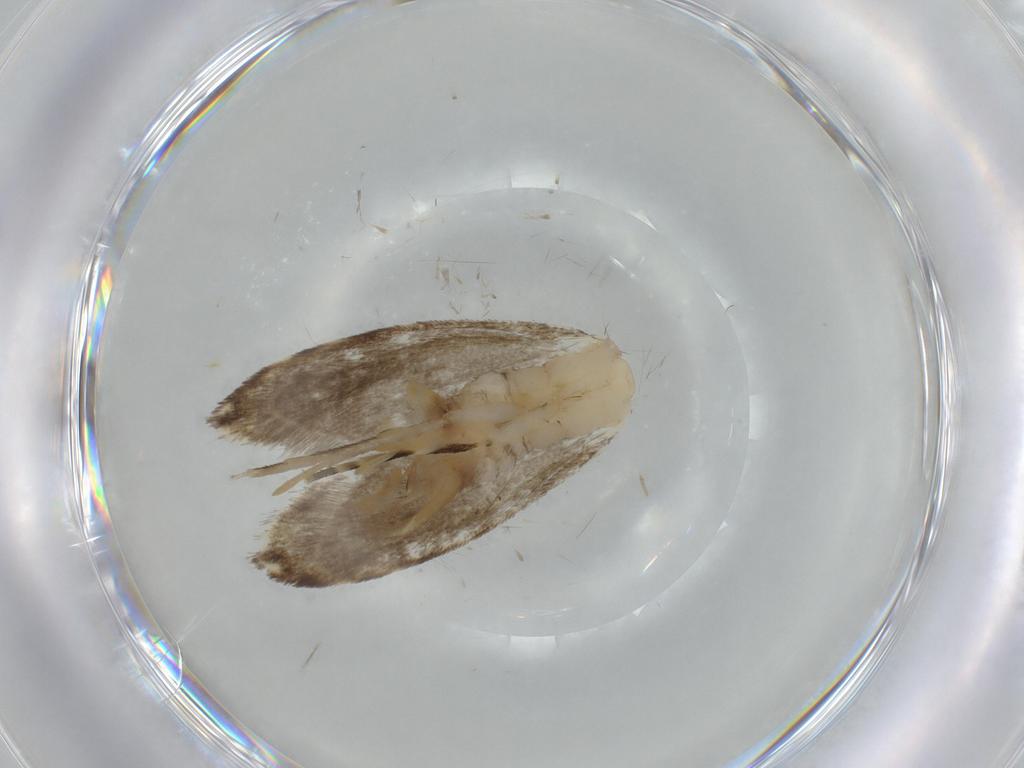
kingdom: Animalia
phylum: Arthropoda
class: Insecta
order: Lepidoptera
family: Tineidae
